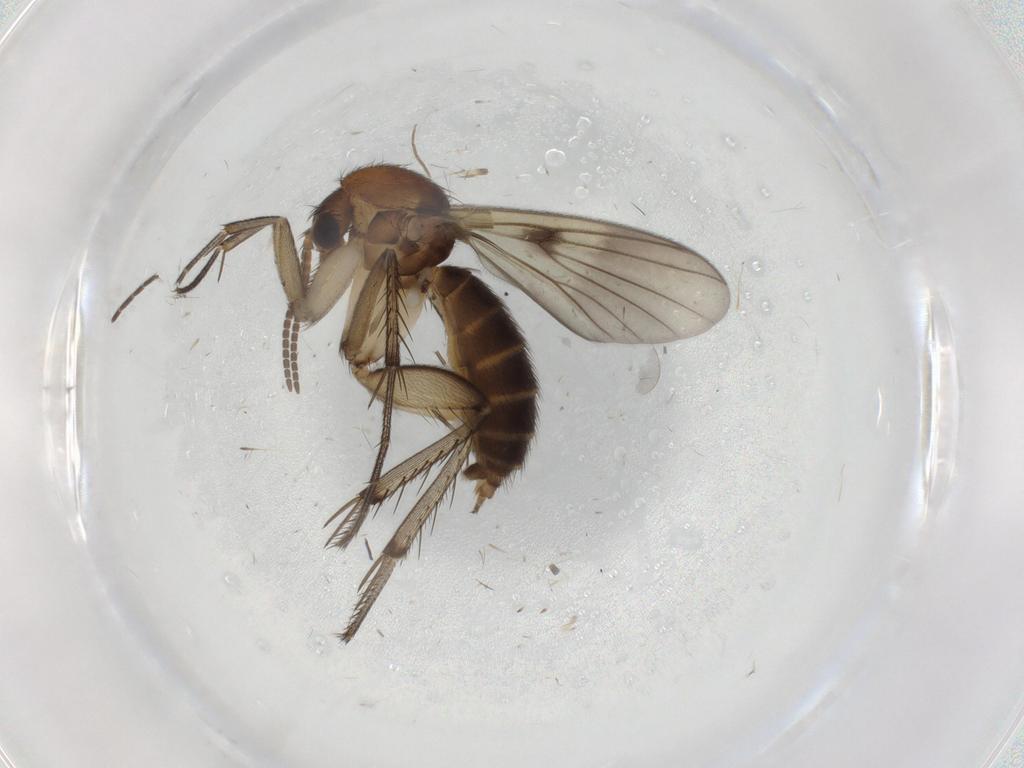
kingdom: Animalia
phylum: Arthropoda
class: Insecta
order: Diptera
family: Chironomidae
